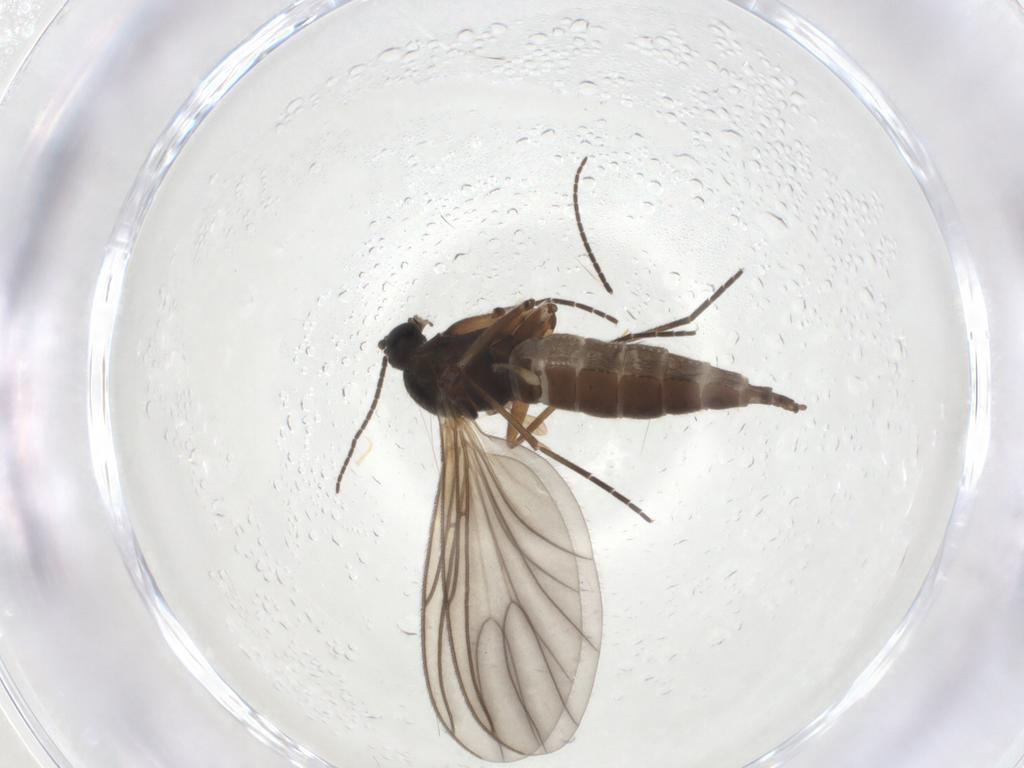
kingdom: Animalia
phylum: Arthropoda
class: Insecta
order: Diptera
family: Sciaridae
